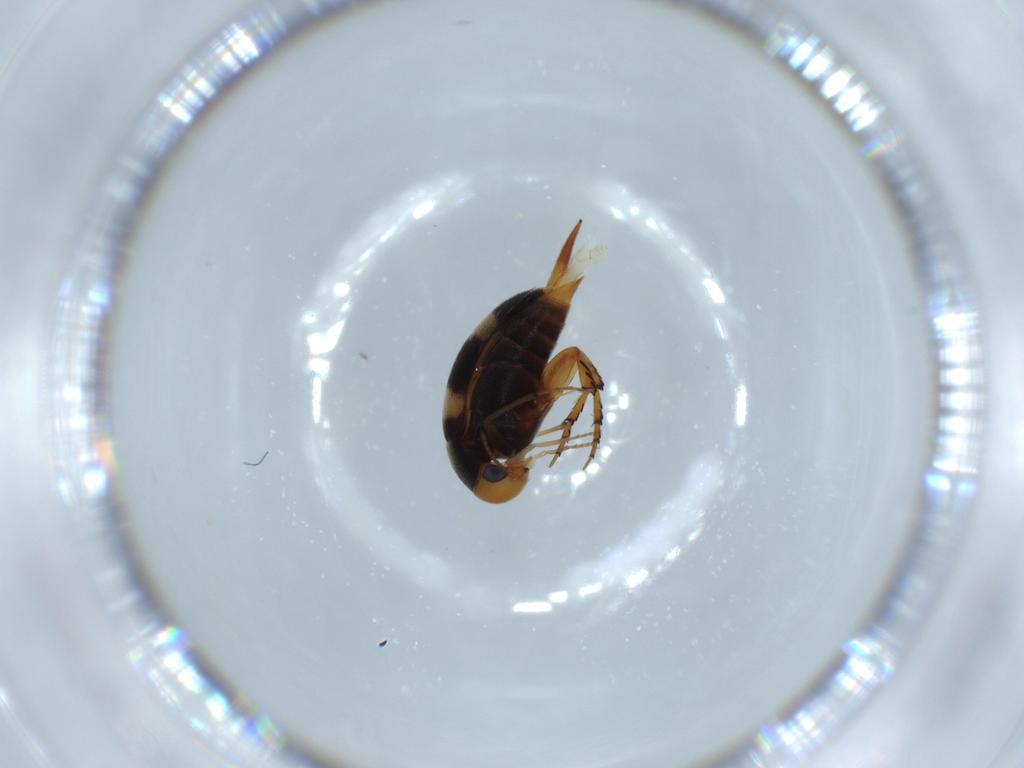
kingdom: Animalia
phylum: Arthropoda
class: Insecta
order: Coleoptera
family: Mordellidae
